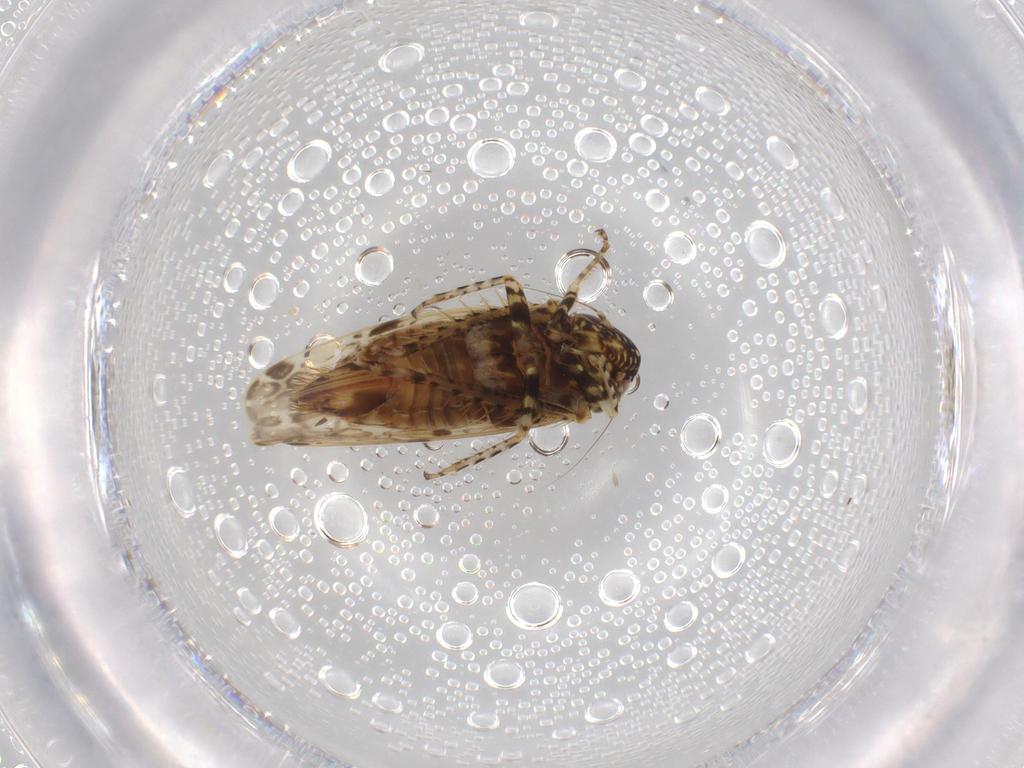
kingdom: Animalia
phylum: Arthropoda
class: Insecta
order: Hemiptera
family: Cicadellidae
